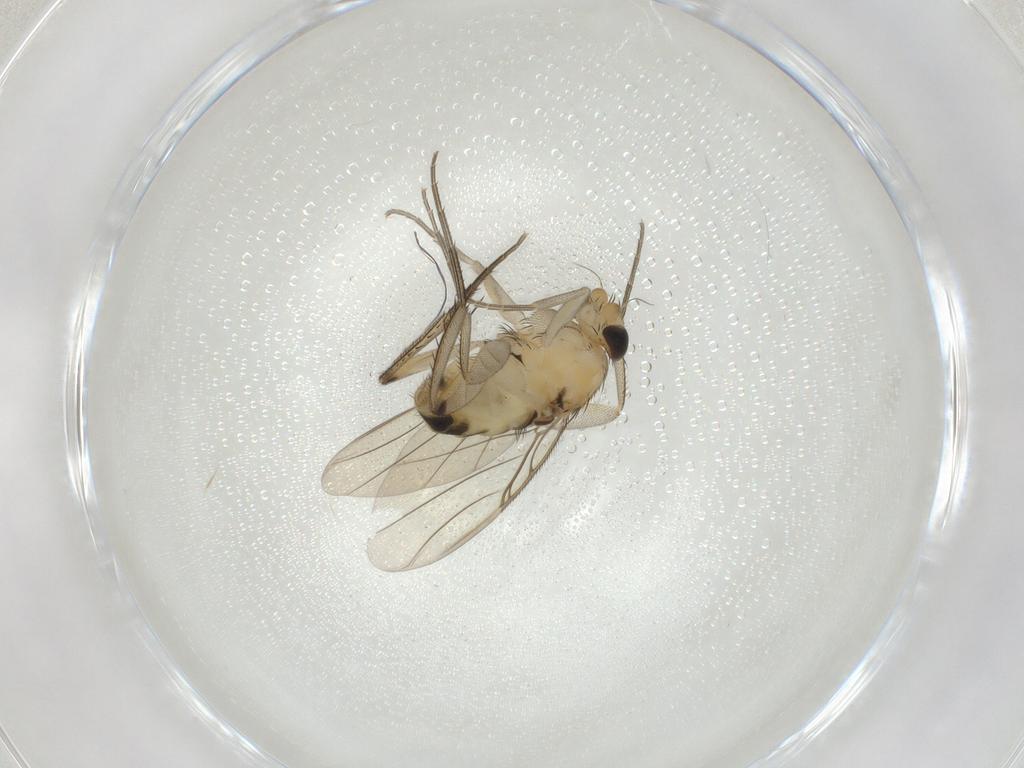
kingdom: Animalia
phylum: Arthropoda
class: Insecta
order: Diptera
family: Phoridae
